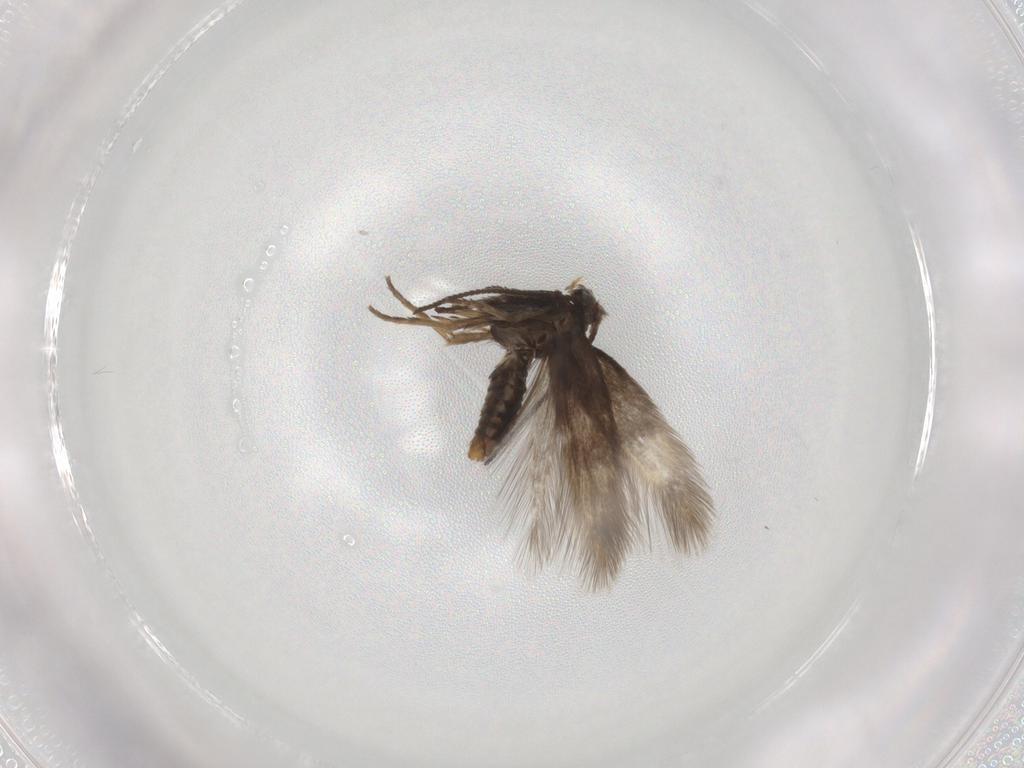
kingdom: Animalia
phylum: Arthropoda
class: Insecta
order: Lepidoptera
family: Nepticulidae
